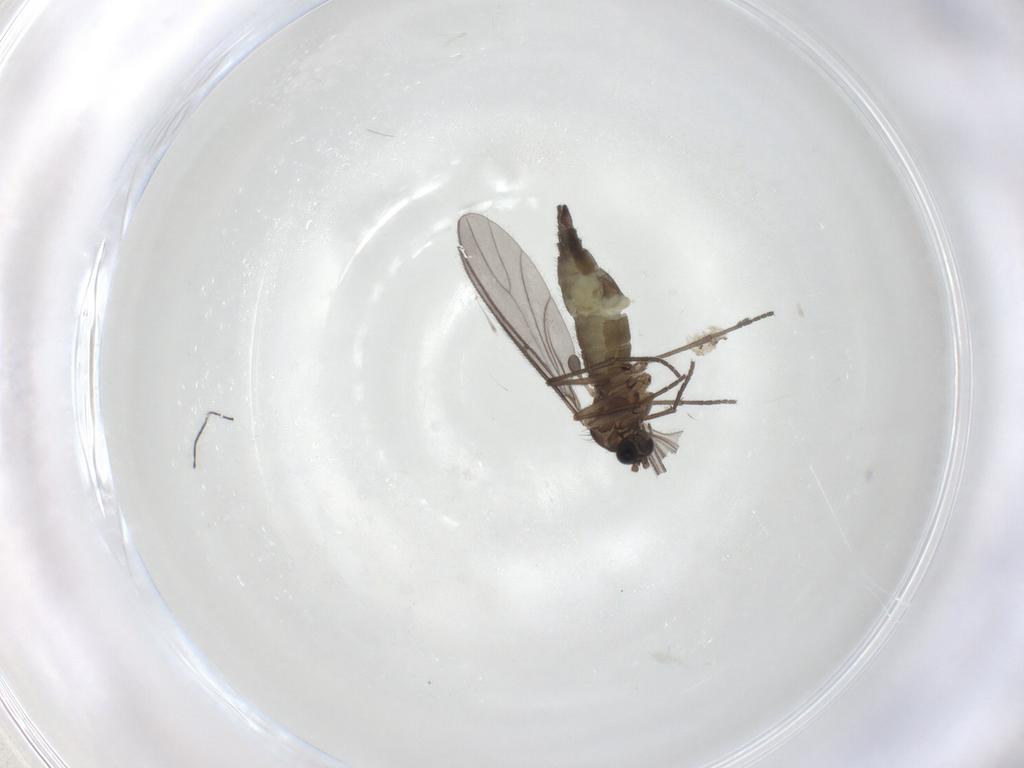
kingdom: Animalia
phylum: Arthropoda
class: Insecta
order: Diptera
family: Sciaridae
